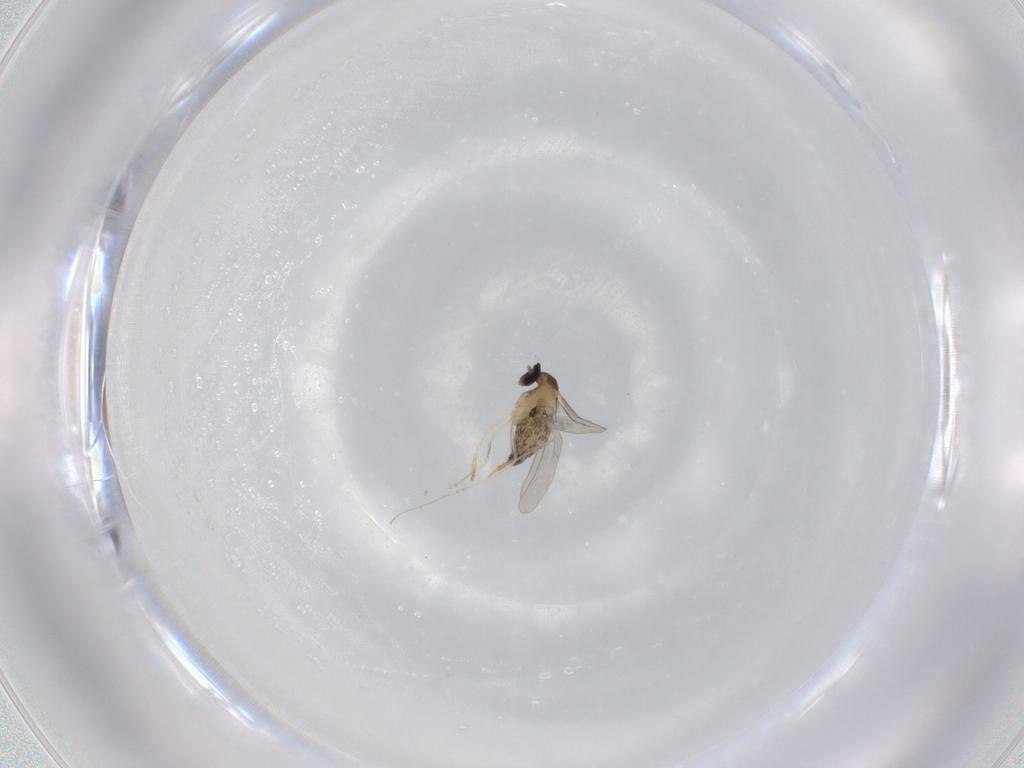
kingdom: Animalia
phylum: Arthropoda
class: Insecta
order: Diptera
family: Cecidomyiidae
